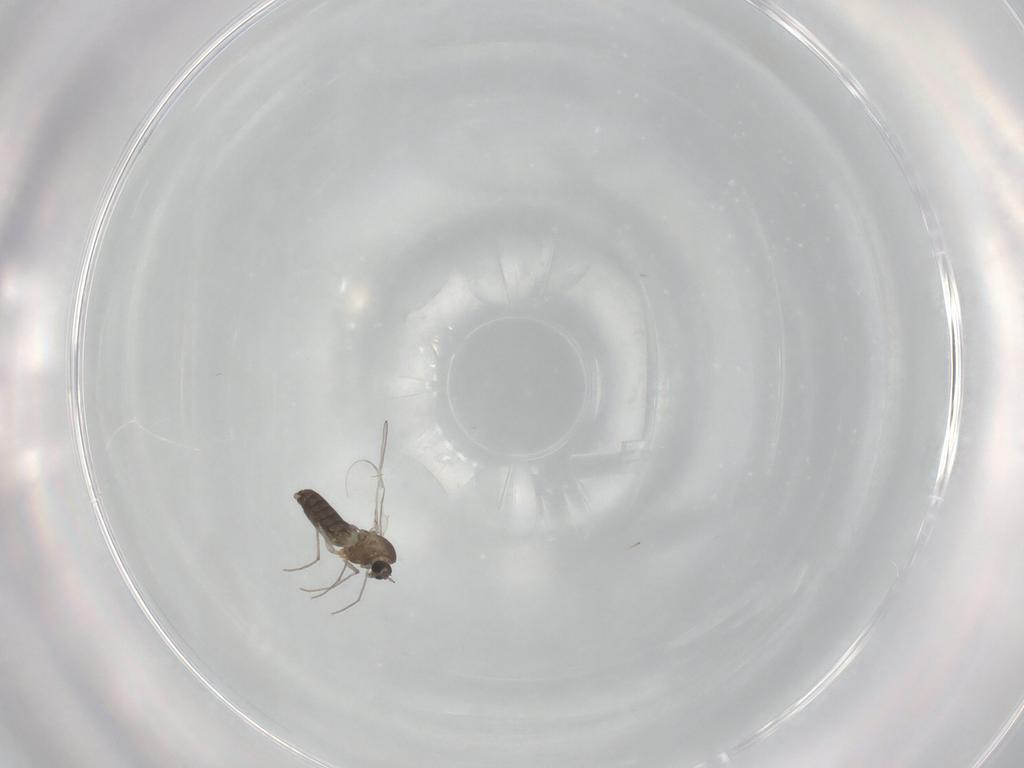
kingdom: Animalia
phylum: Arthropoda
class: Insecta
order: Diptera
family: Chironomidae
